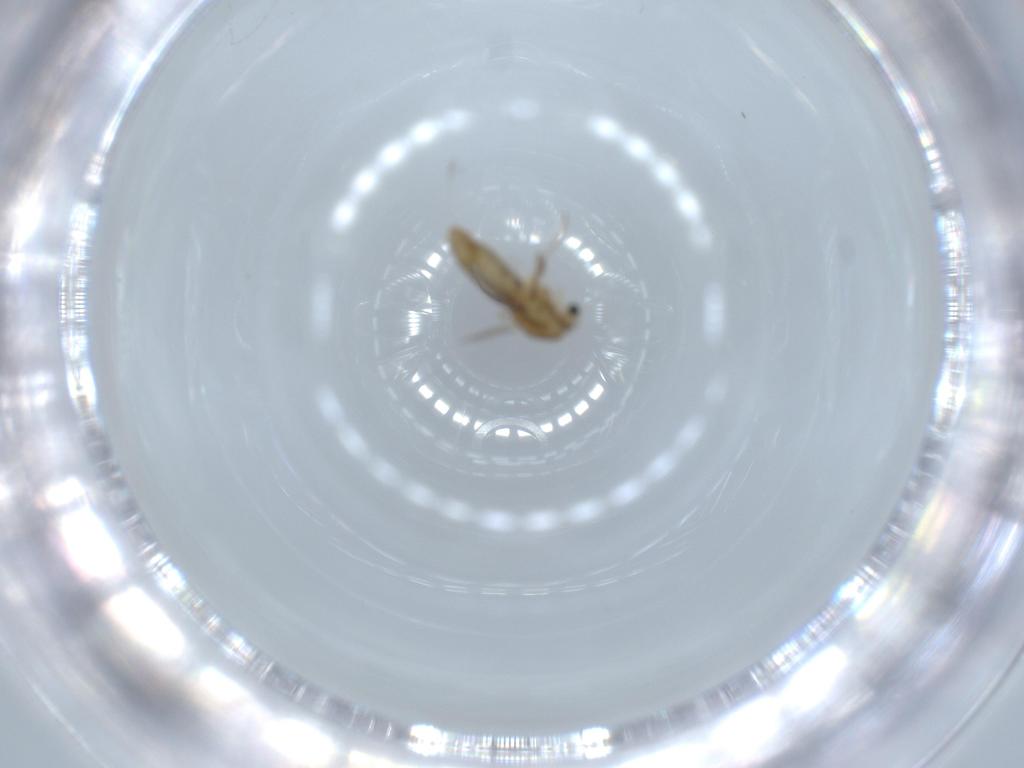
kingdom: Animalia
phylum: Arthropoda
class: Insecta
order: Diptera
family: Chironomidae
